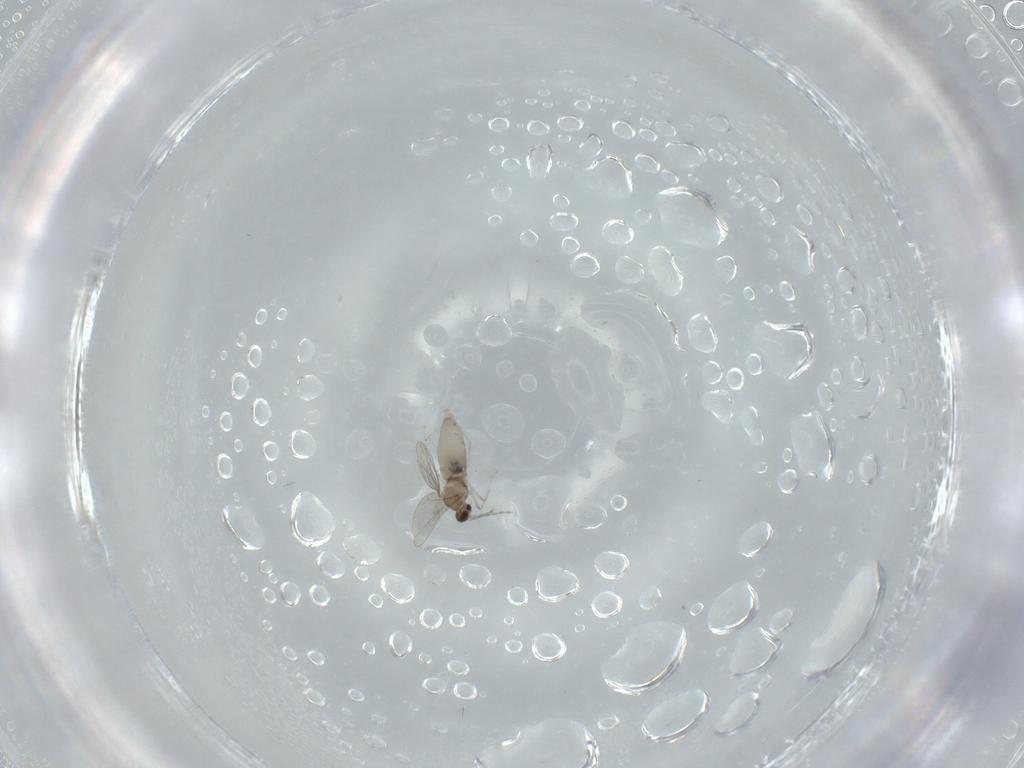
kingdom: Animalia
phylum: Arthropoda
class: Insecta
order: Diptera
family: Cecidomyiidae
